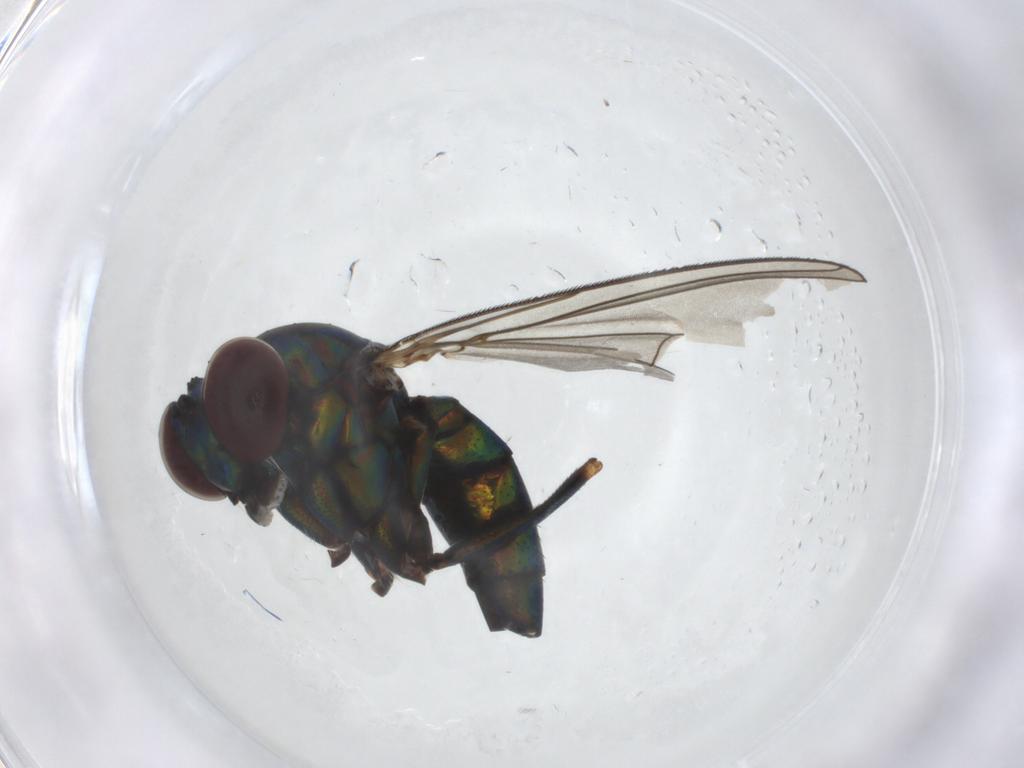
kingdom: Animalia
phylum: Arthropoda
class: Insecta
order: Diptera
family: Dolichopodidae
